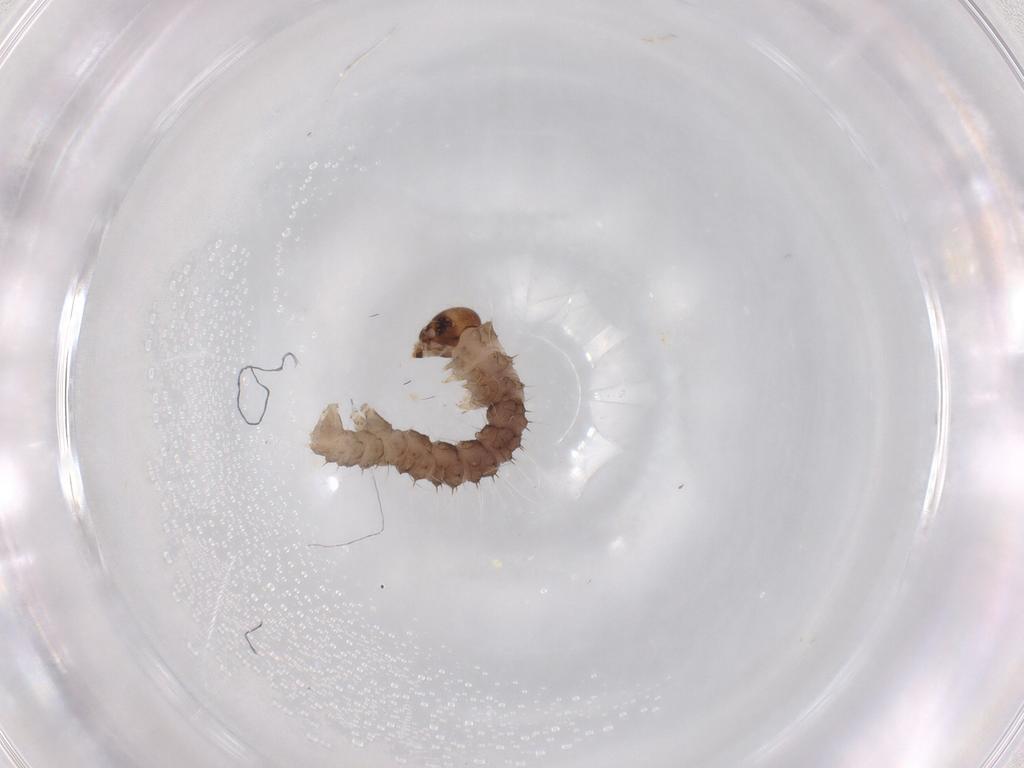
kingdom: Animalia
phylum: Arthropoda
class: Insecta
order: Lepidoptera
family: Geometridae
